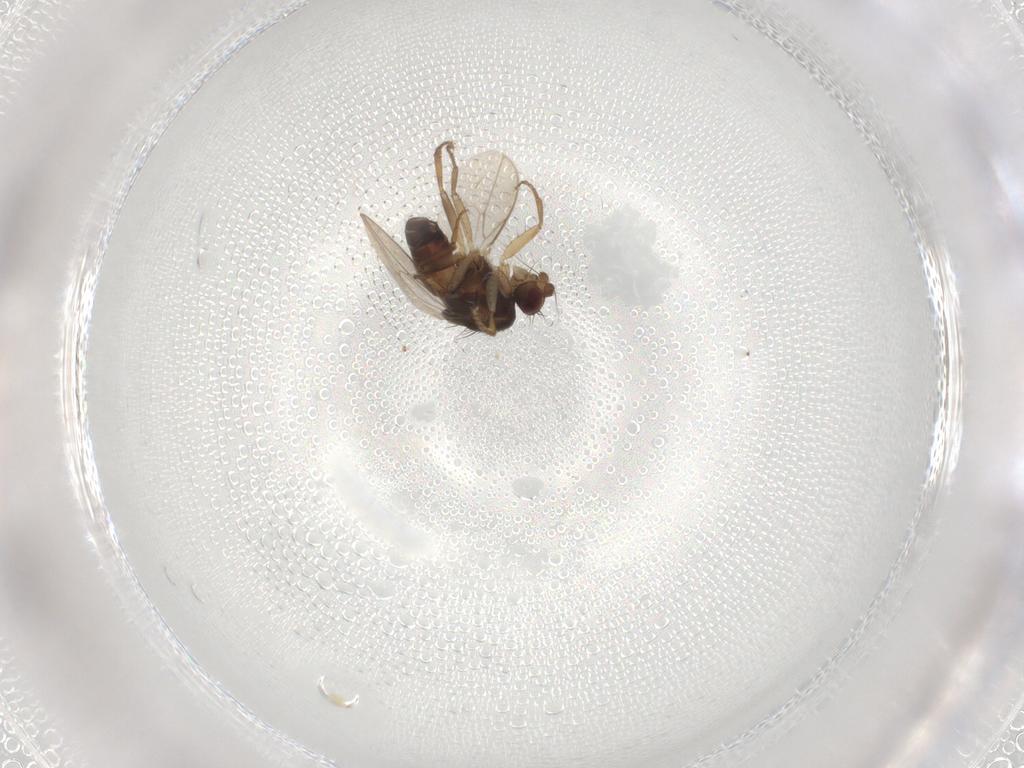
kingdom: Animalia
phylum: Arthropoda
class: Insecta
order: Diptera
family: Sphaeroceridae
